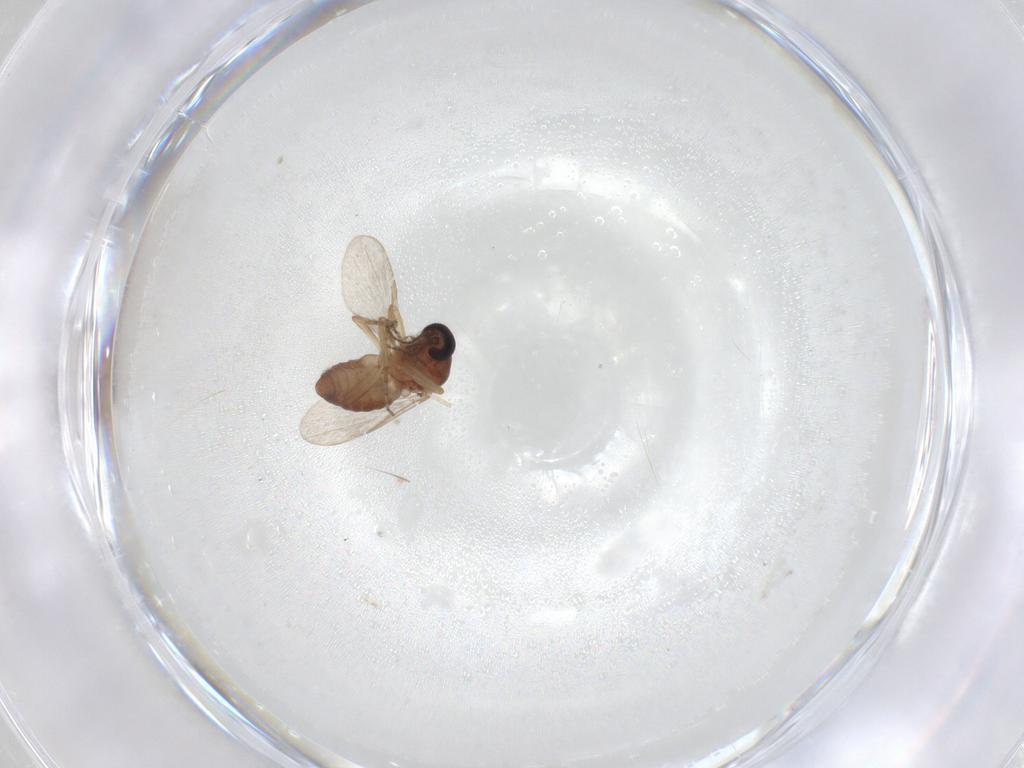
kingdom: Animalia
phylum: Arthropoda
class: Insecta
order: Diptera
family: Ceratopogonidae
